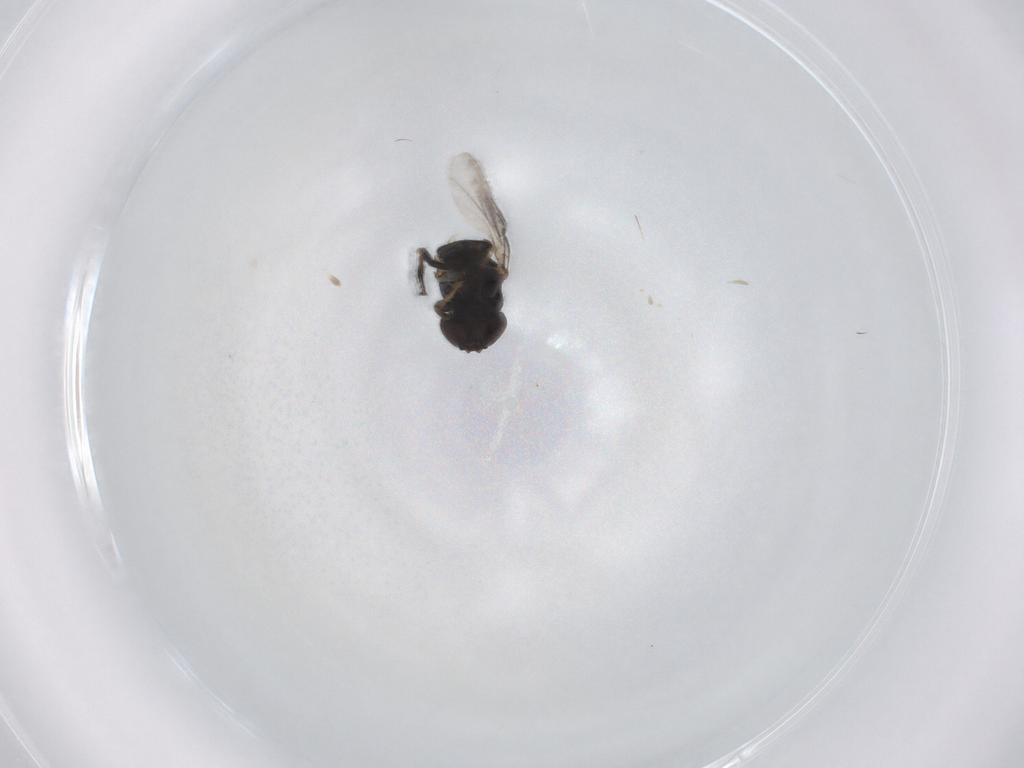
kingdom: Animalia
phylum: Arthropoda
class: Insecta
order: Diptera
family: Chloropidae
